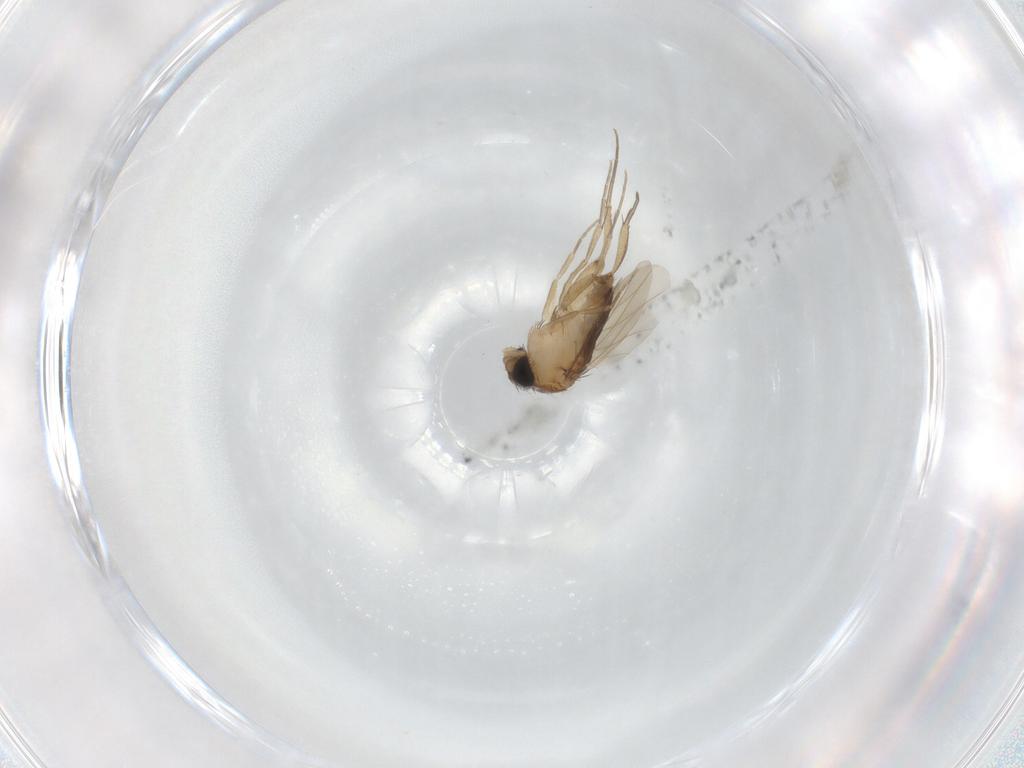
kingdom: Animalia
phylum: Arthropoda
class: Insecta
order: Diptera
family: Phoridae
